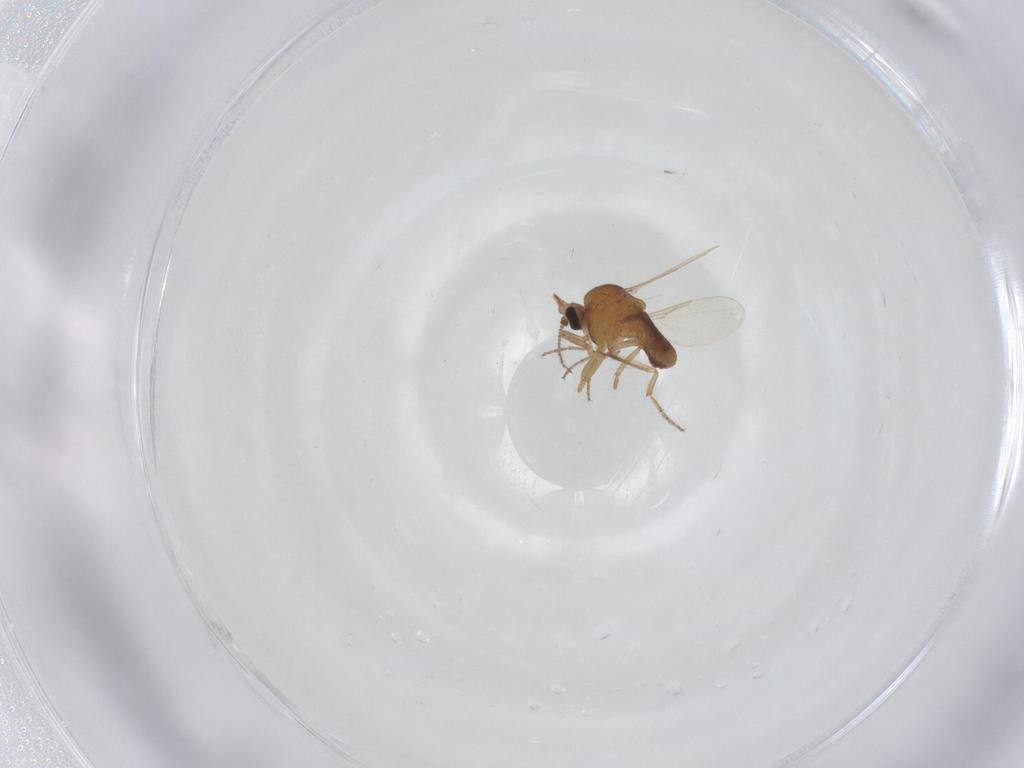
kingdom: Animalia
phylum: Arthropoda
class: Insecta
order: Diptera
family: Ceratopogonidae
